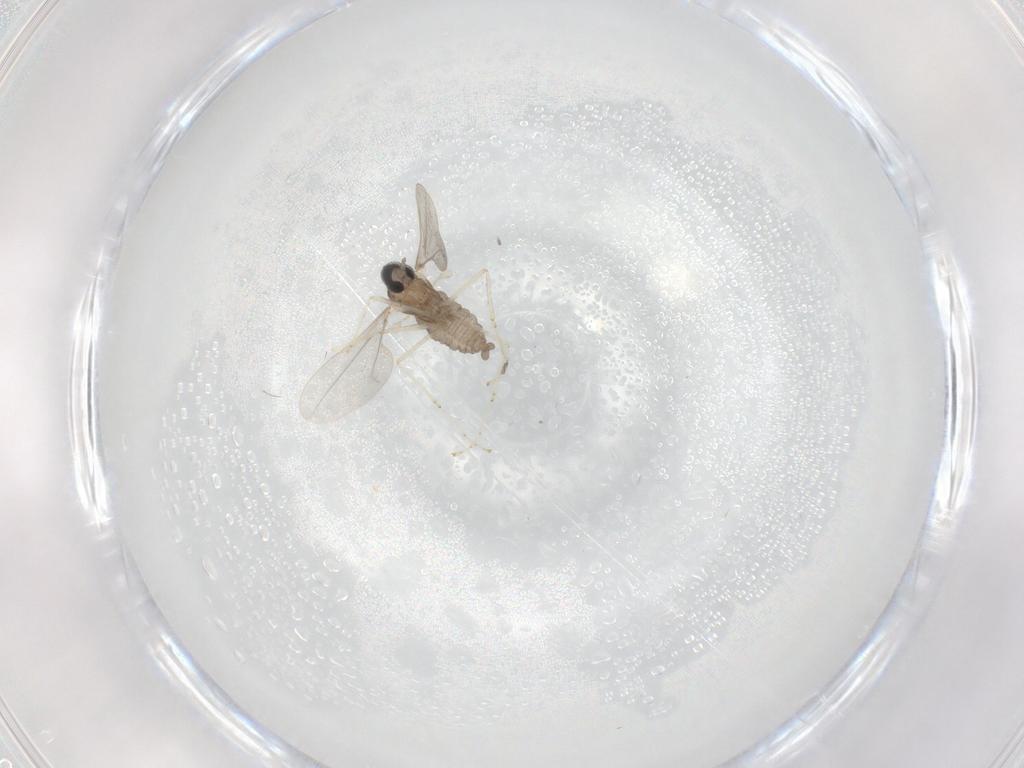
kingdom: Animalia
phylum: Arthropoda
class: Insecta
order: Diptera
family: Cecidomyiidae
